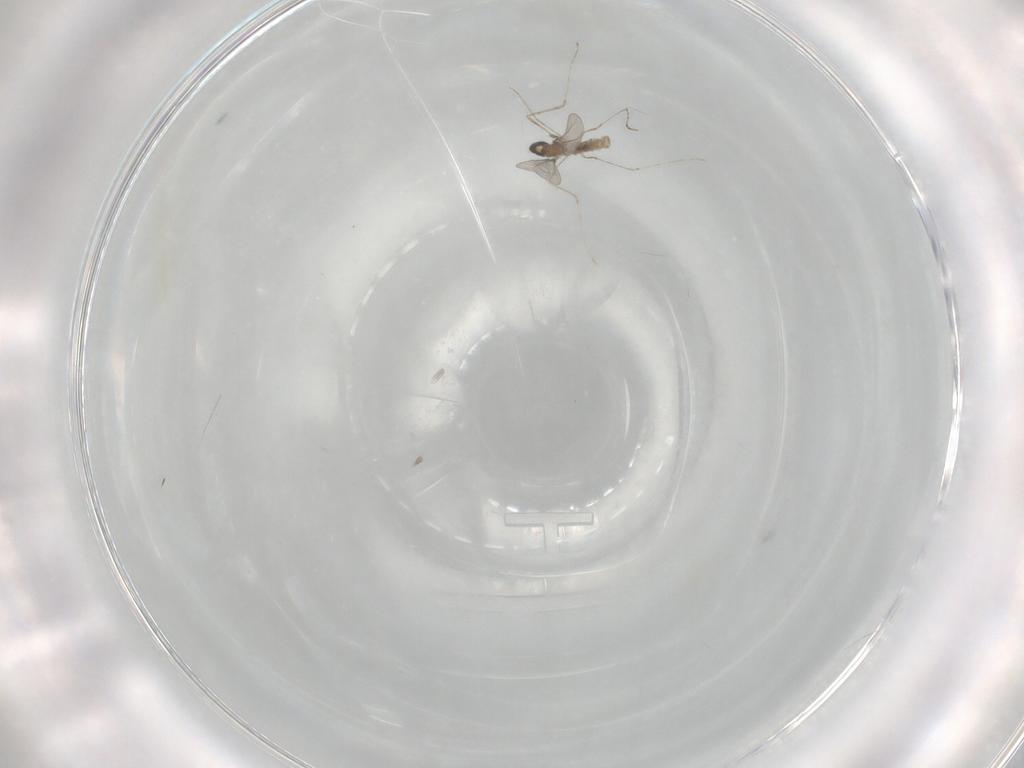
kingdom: Animalia
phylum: Arthropoda
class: Insecta
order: Diptera
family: Cecidomyiidae
